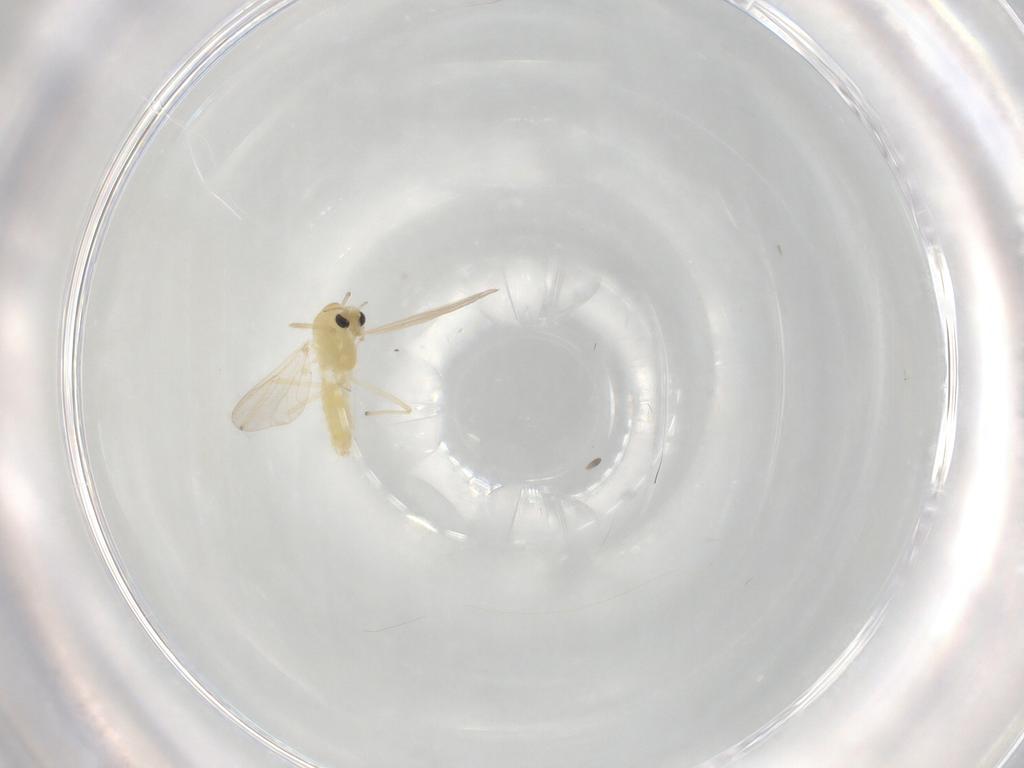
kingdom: Animalia
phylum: Arthropoda
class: Insecta
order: Diptera
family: Chironomidae
